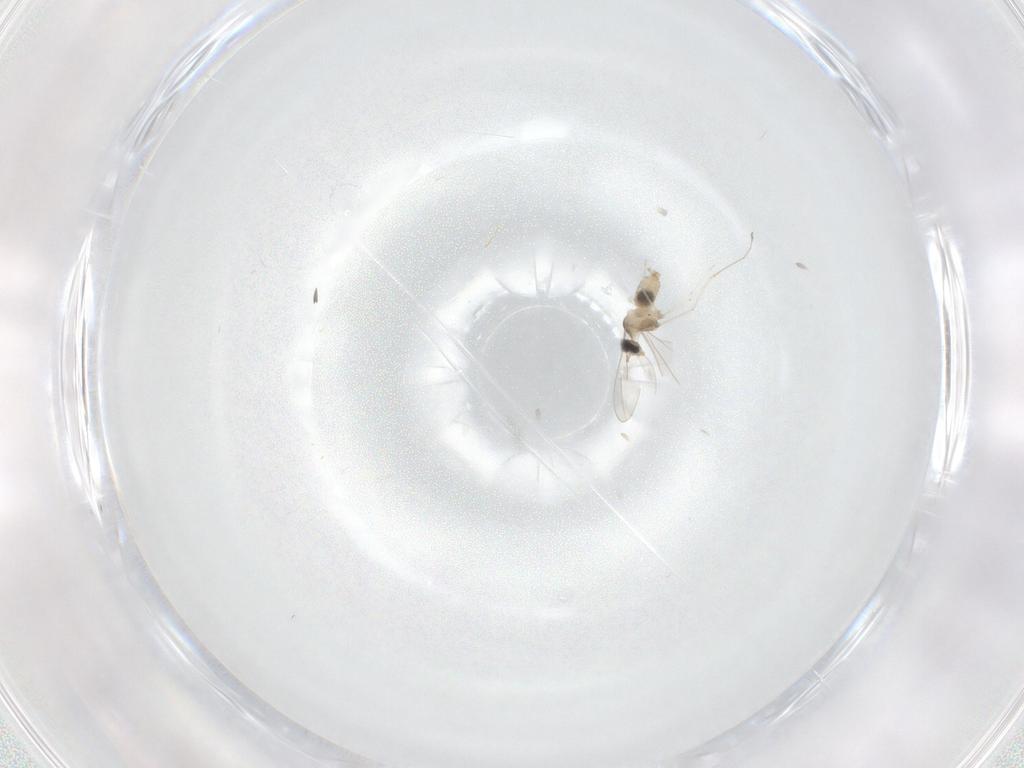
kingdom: Animalia
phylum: Arthropoda
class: Insecta
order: Diptera
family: Cecidomyiidae
